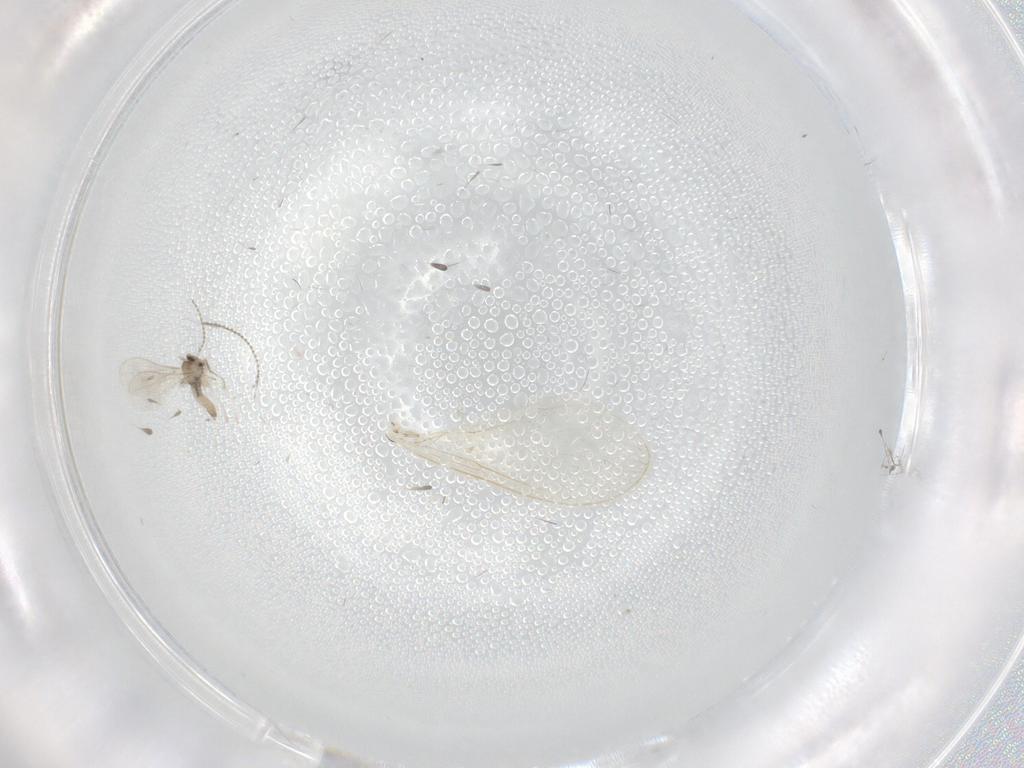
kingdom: Animalia
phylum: Arthropoda
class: Insecta
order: Diptera
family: Cecidomyiidae
